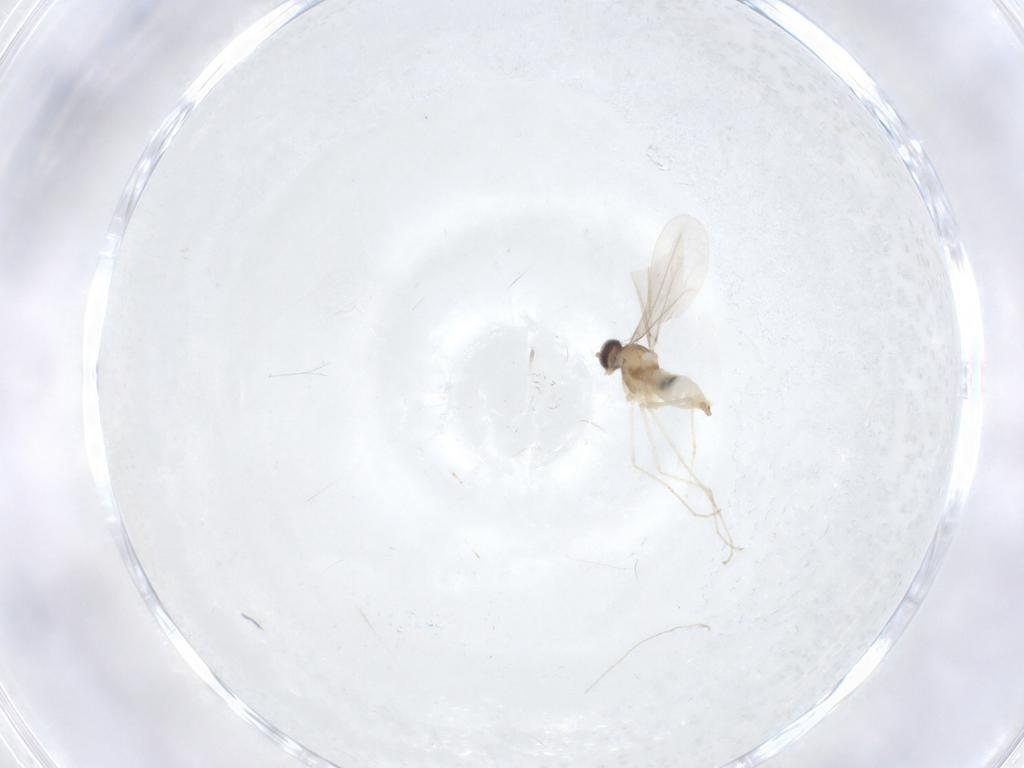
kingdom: Animalia
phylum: Arthropoda
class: Insecta
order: Diptera
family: Cecidomyiidae
